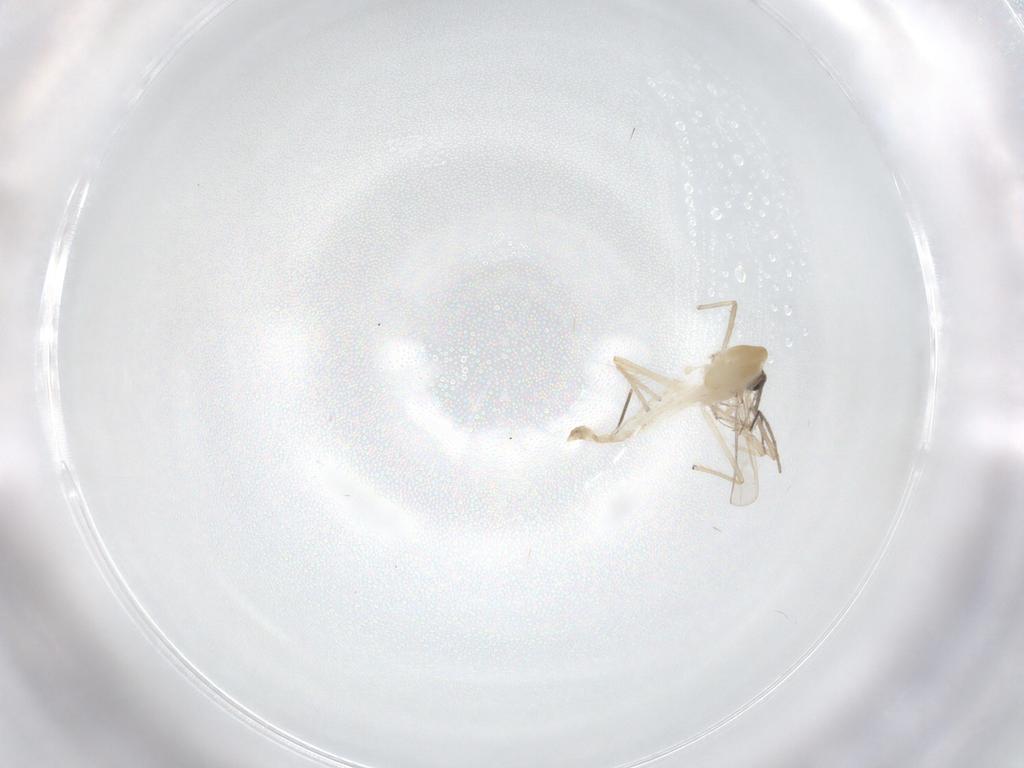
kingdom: Animalia
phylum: Arthropoda
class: Insecta
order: Diptera
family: Chironomidae
